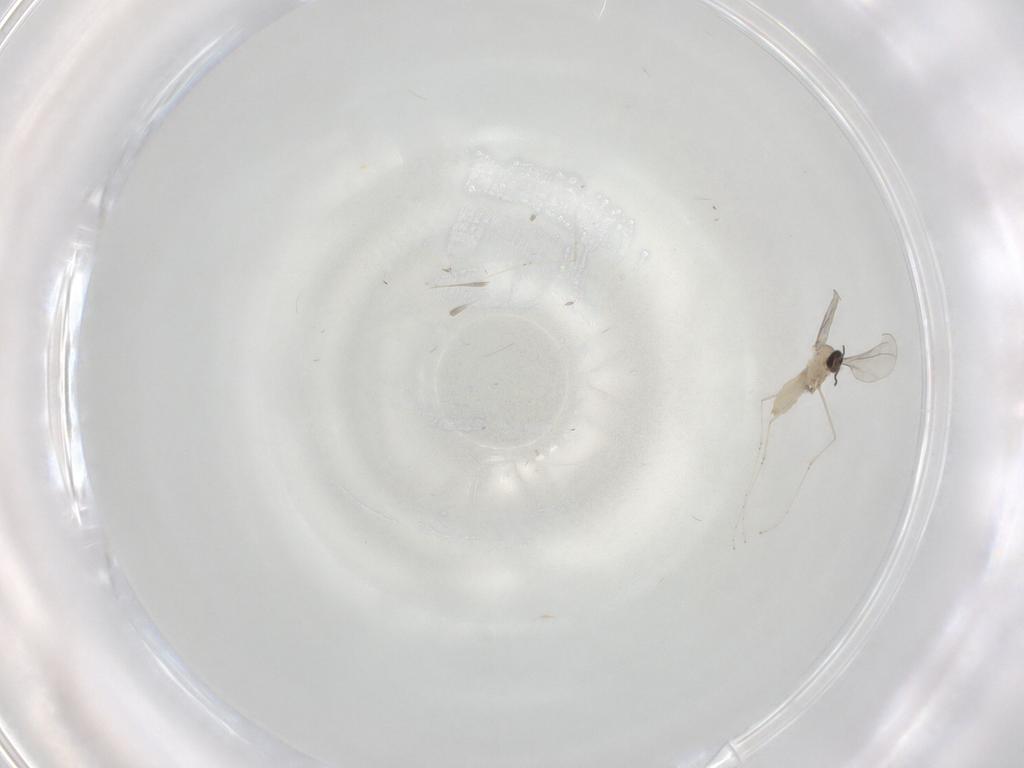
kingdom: Animalia
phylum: Arthropoda
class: Insecta
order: Diptera
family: Cecidomyiidae
